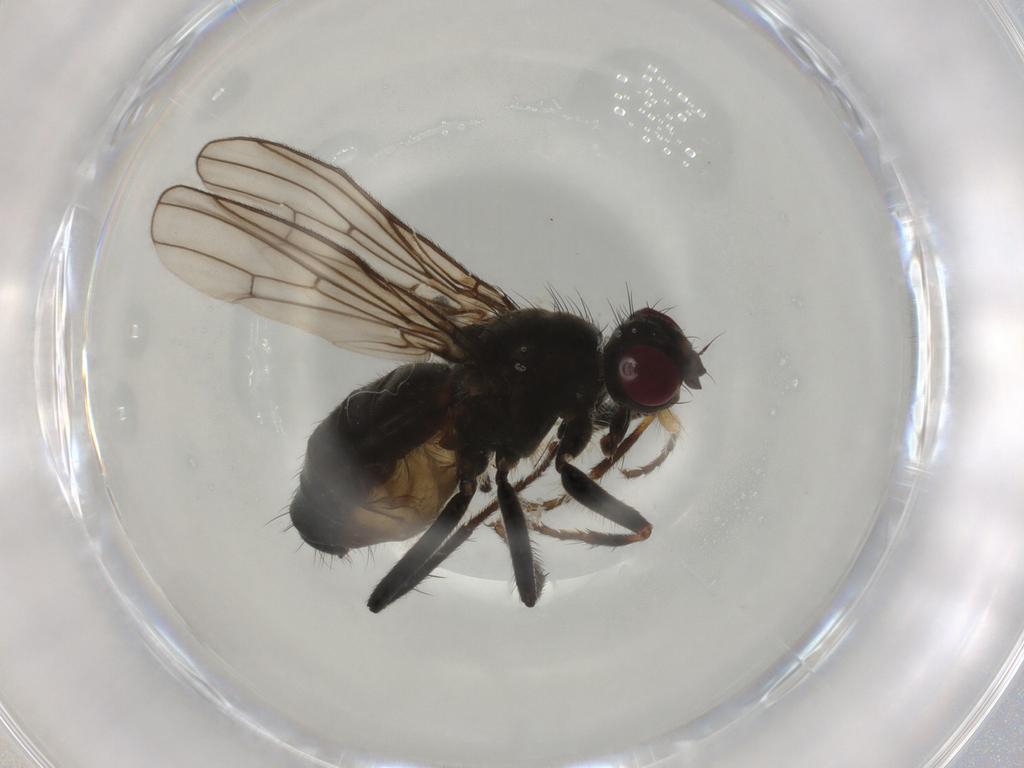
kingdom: Animalia
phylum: Arthropoda
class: Insecta
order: Diptera
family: Scathophagidae
